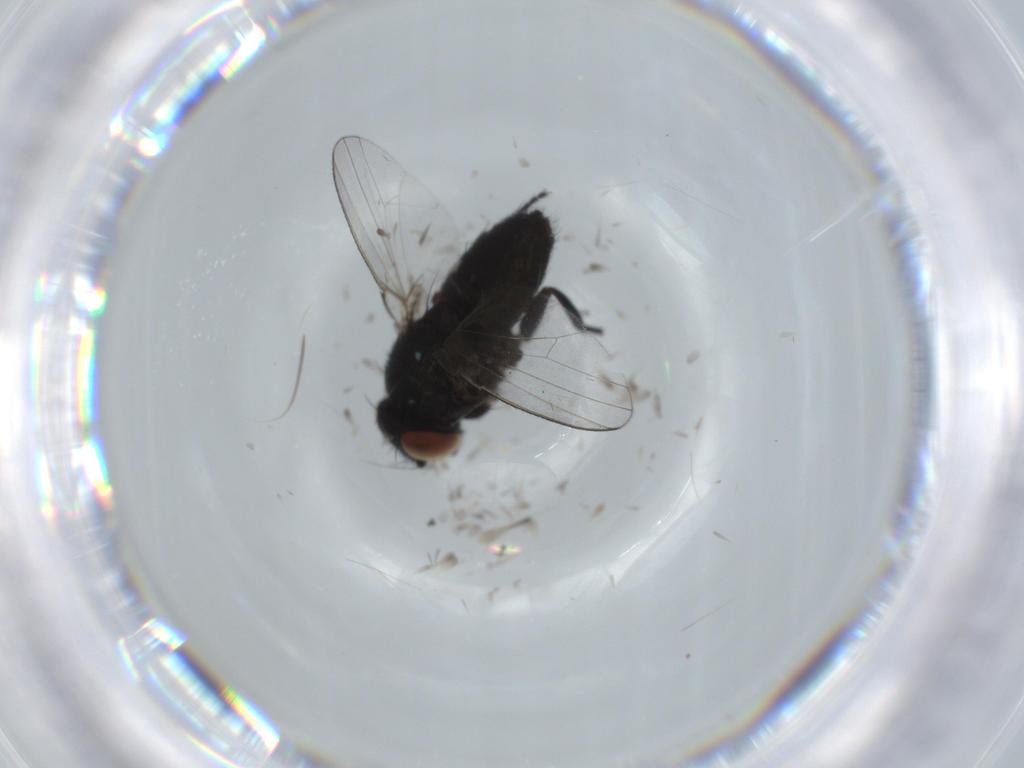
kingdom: Animalia
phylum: Arthropoda
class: Insecta
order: Diptera
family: Milichiidae
